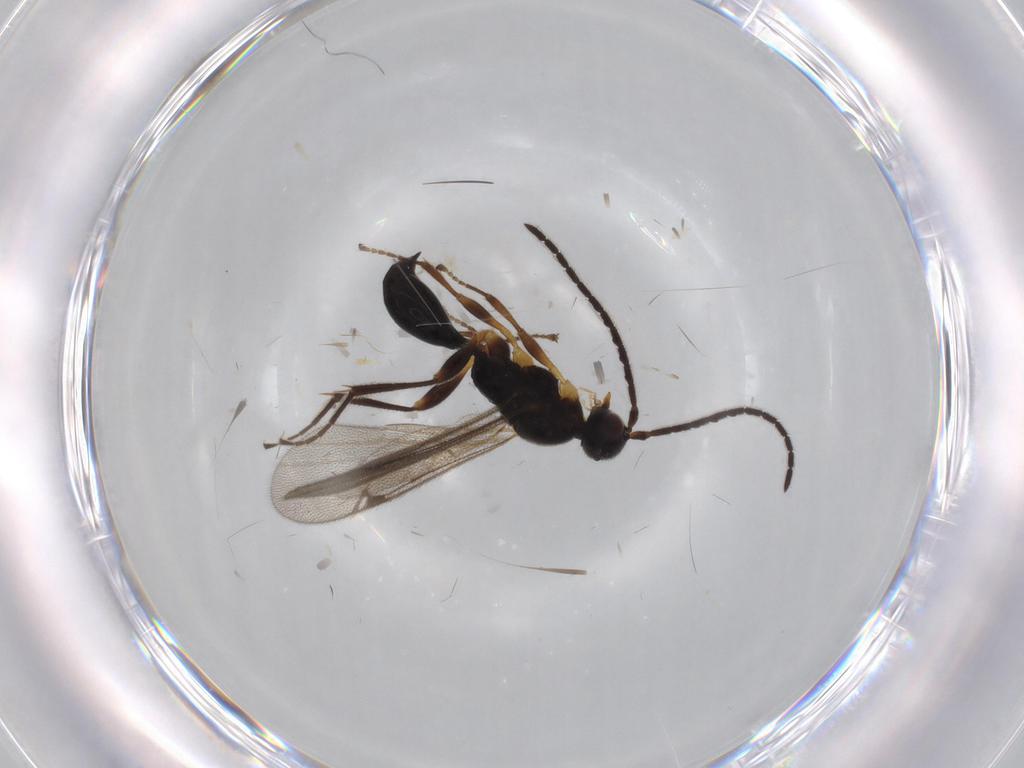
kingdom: Animalia
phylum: Arthropoda
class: Insecta
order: Hymenoptera
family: Proctotrupidae
